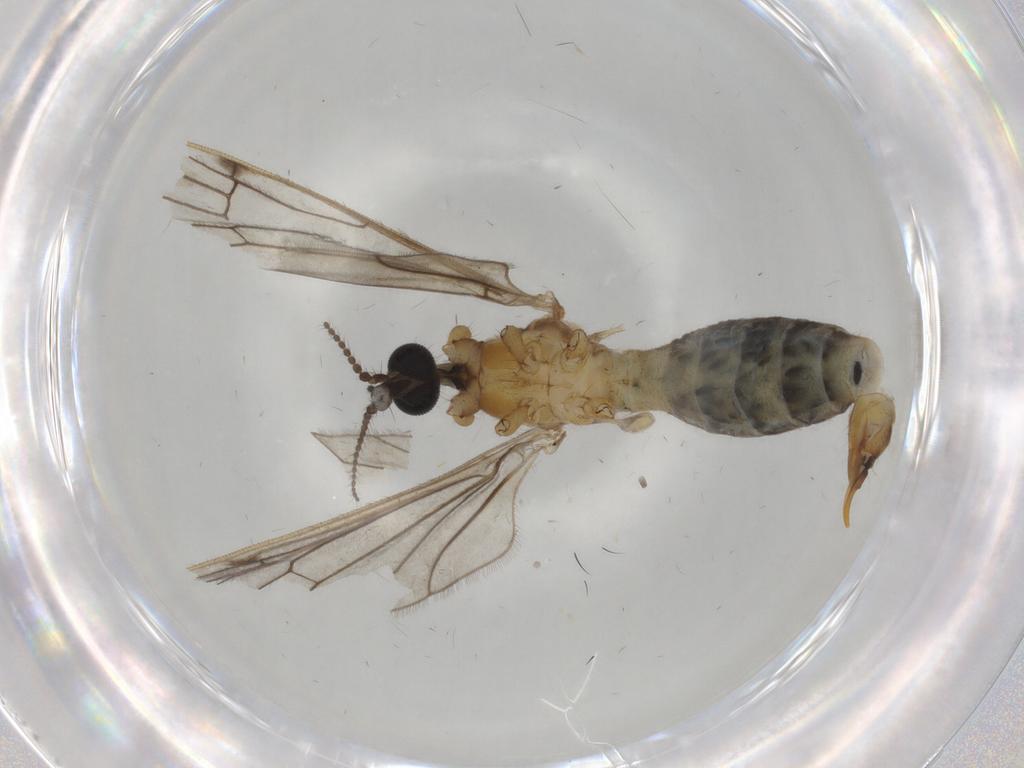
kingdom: Animalia
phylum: Arthropoda
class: Insecta
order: Diptera
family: Limoniidae
